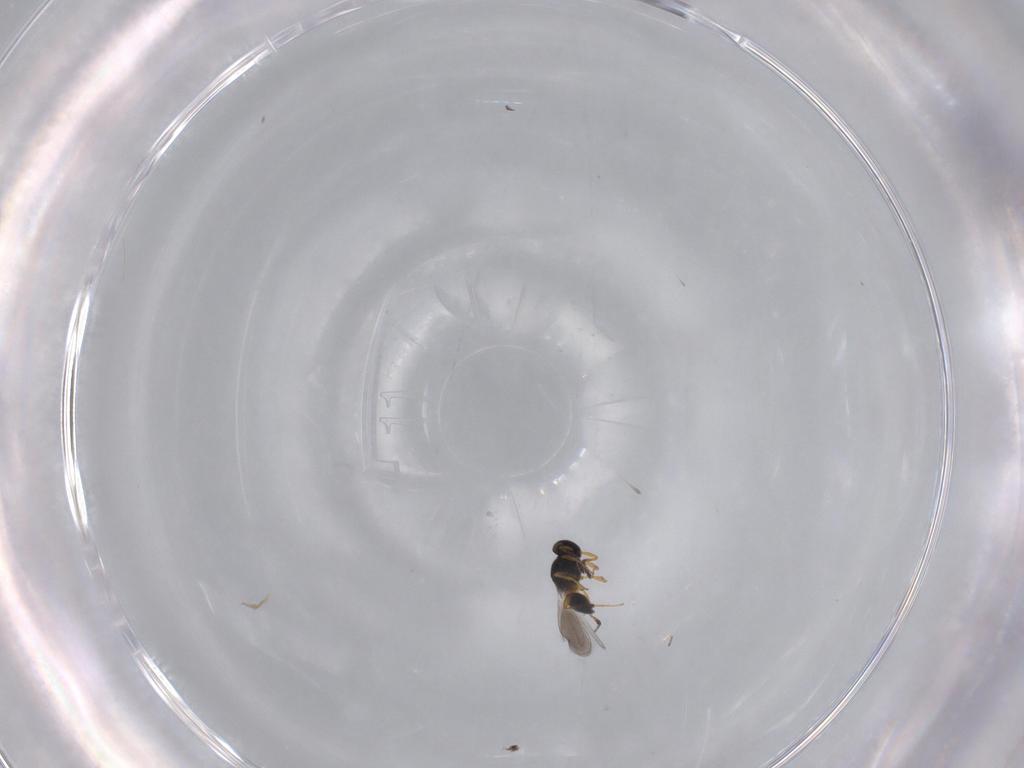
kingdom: Animalia
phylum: Arthropoda
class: Insecta
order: Hymenoptera
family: Platygastridae
